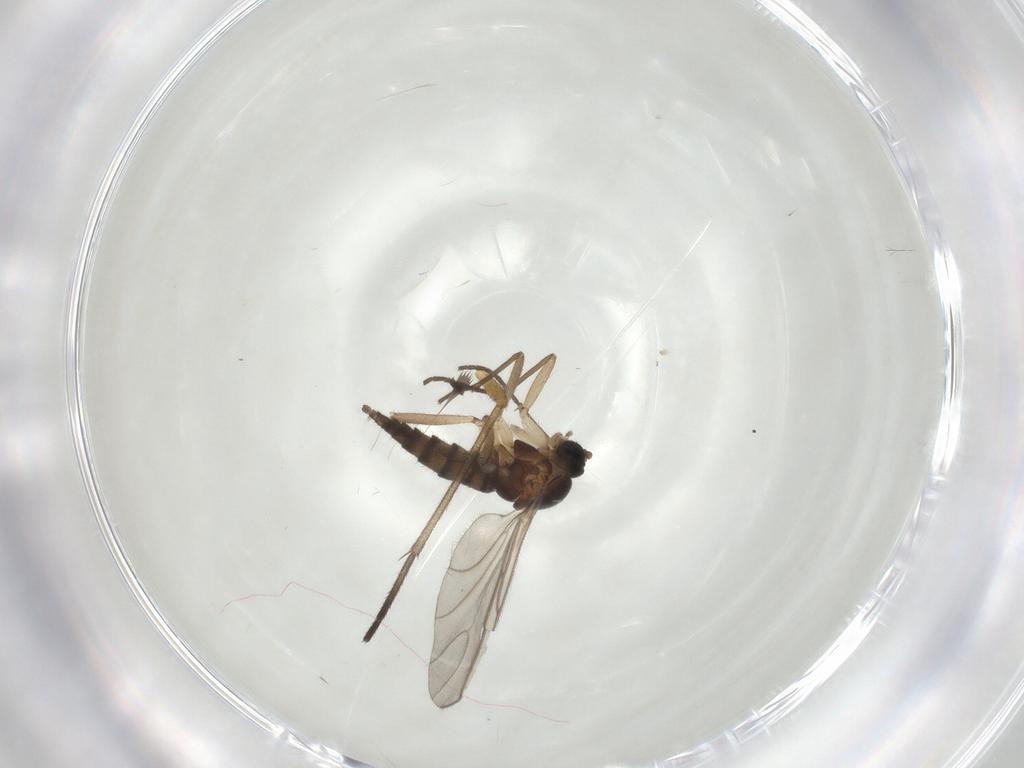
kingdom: Animalia
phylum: Arthropoda
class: Insecta
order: Diptera
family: Sciaridae
